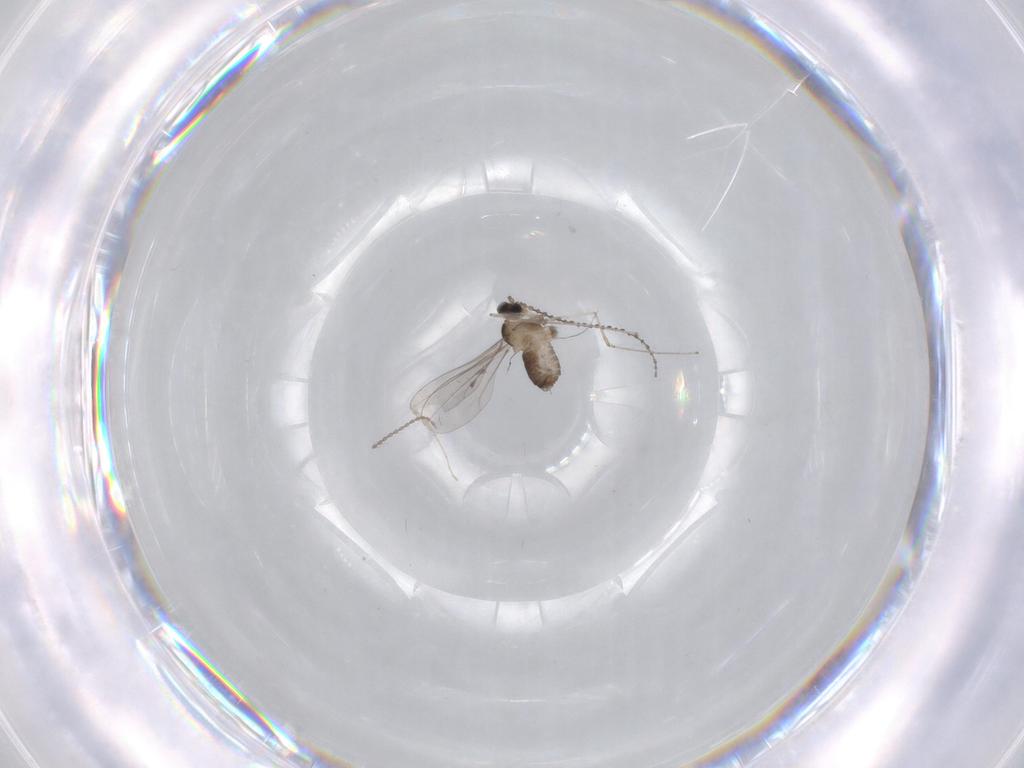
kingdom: Animalia
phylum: Arthropoda
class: Insecta
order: Diptera
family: Cecidomyiidae
